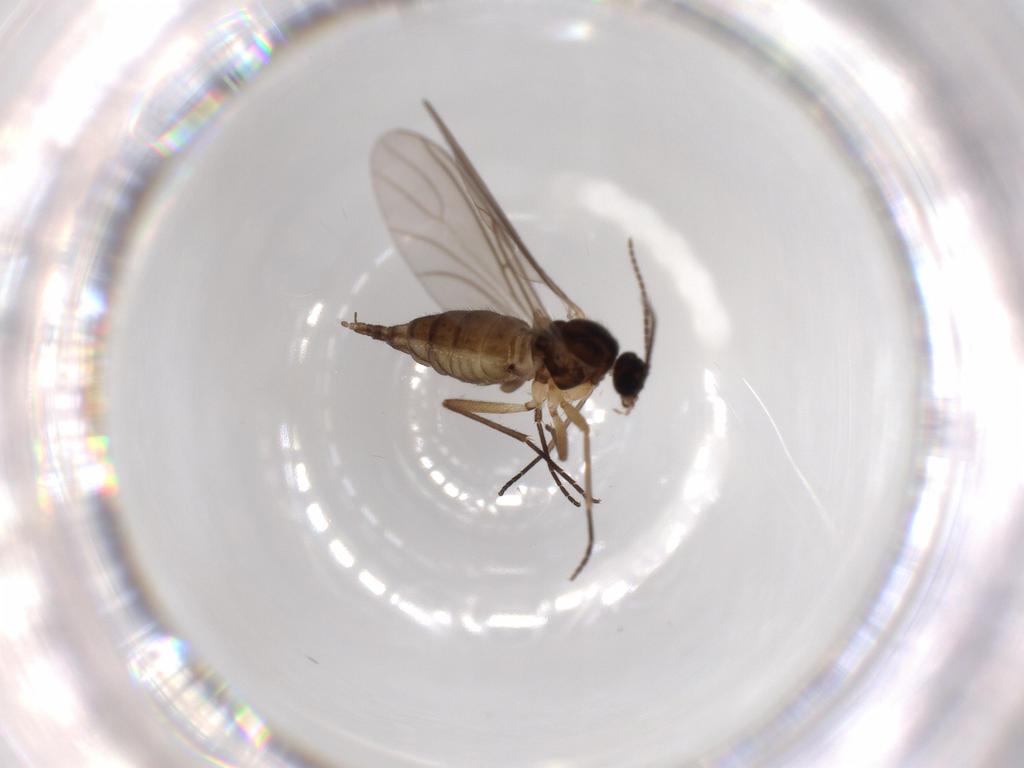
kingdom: Animalia
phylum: Arthropoda
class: Insecta
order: Diptera
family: Sciaridae
